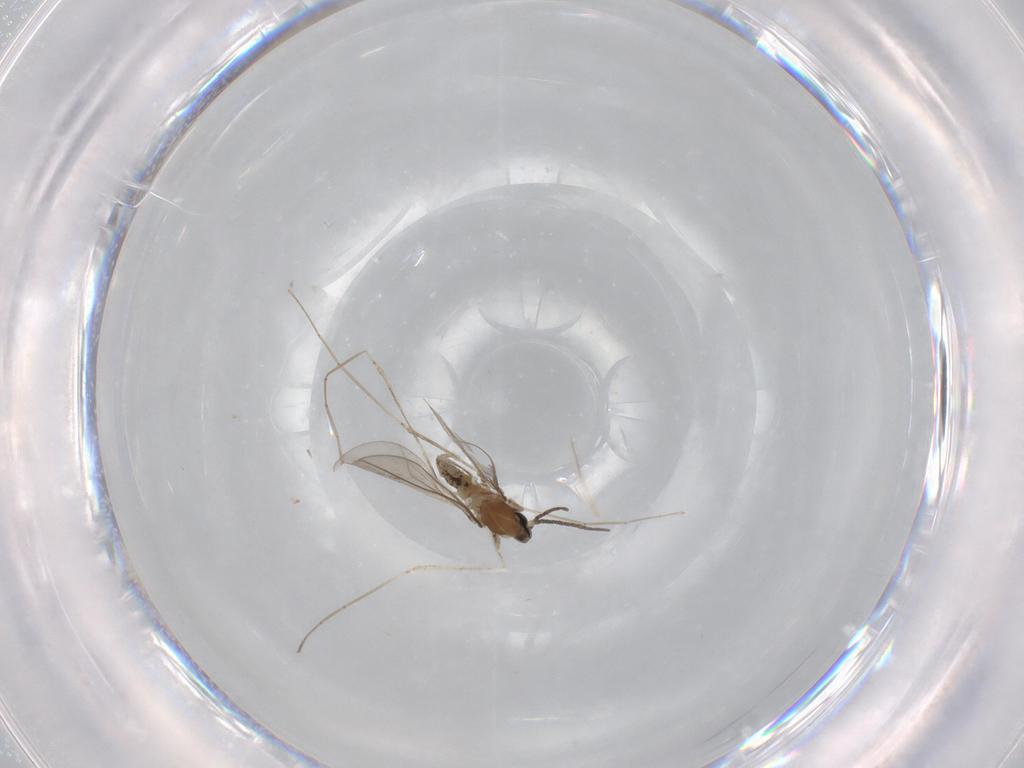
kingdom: Animalia
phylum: Arthropoda
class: Insecta
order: Diptera
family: Cecidomyiidae
